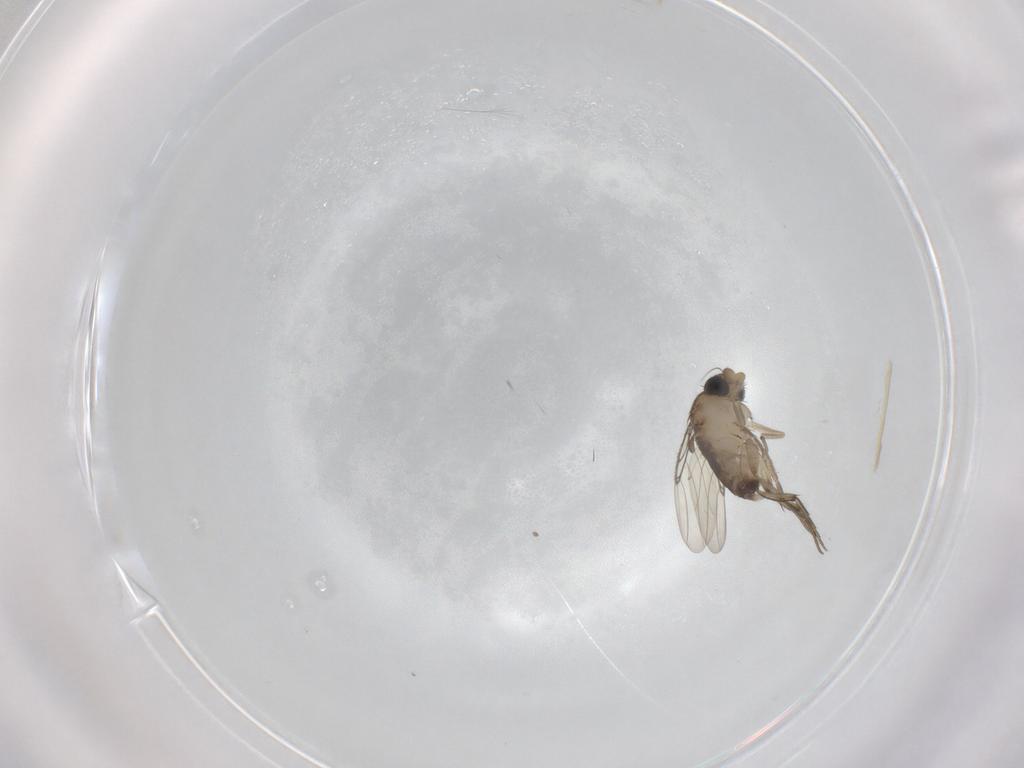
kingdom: Animalia
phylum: Arthropoda
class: Insecta
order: Diptera
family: Phoridae
